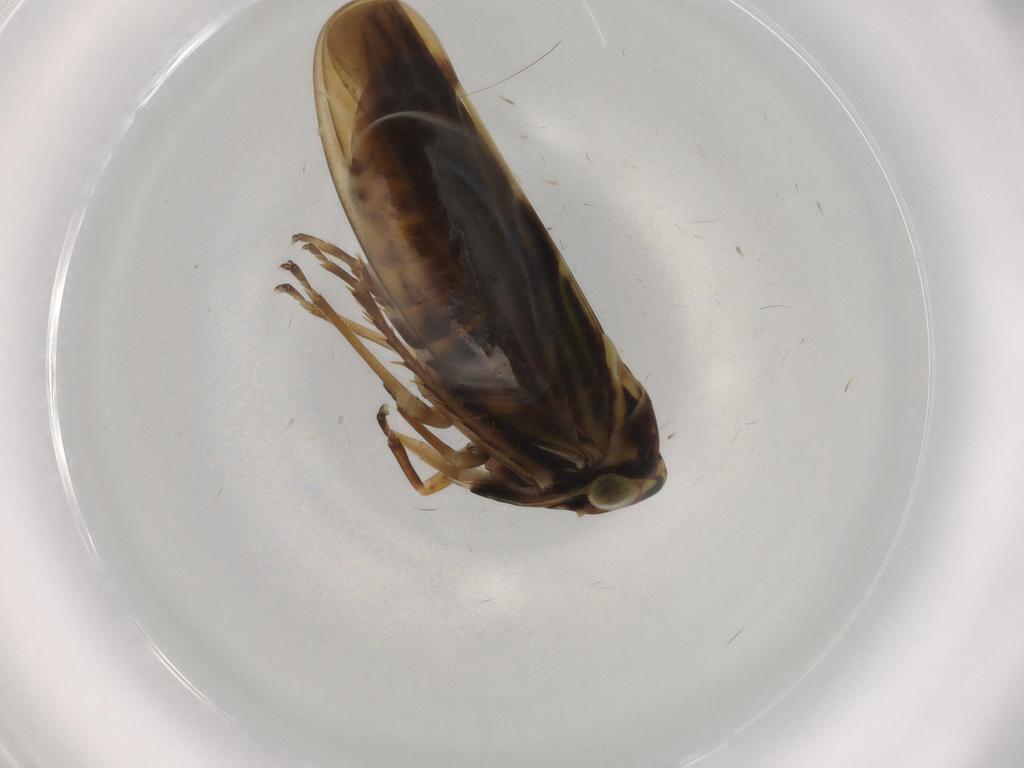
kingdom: Animalia
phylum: Arthropoda
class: Insecta
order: Hemiptera
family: Cicadellidae
